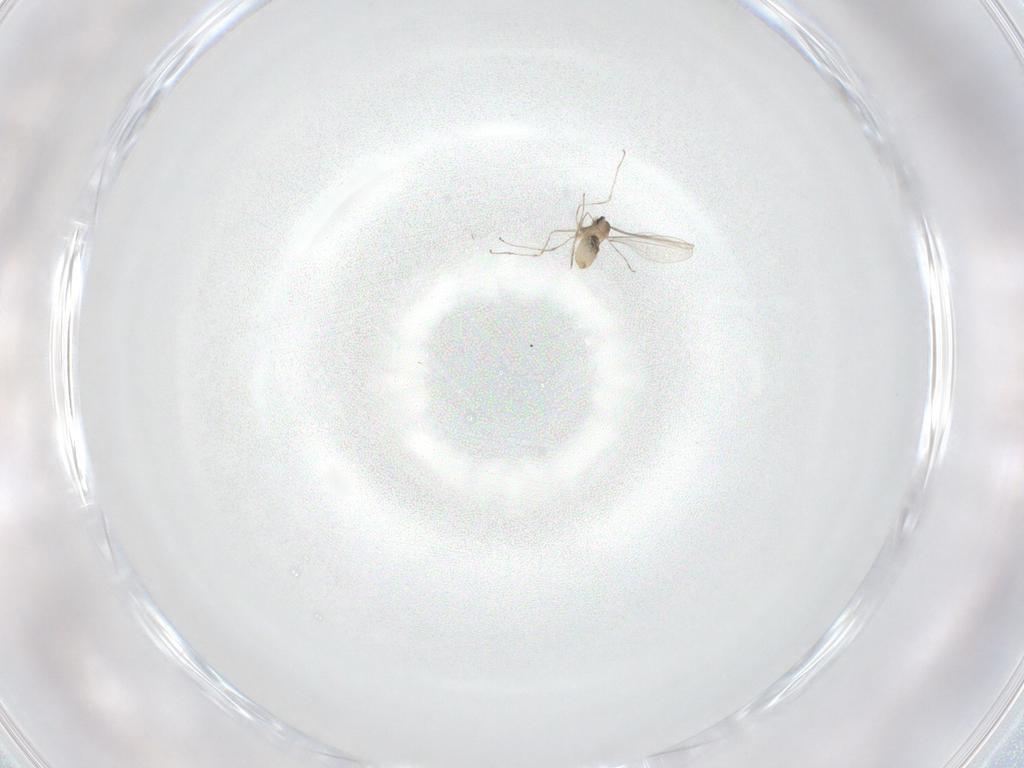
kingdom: Animalia
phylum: Arthropoda
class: Insecta
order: Diptera
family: Cecidomyiidae
